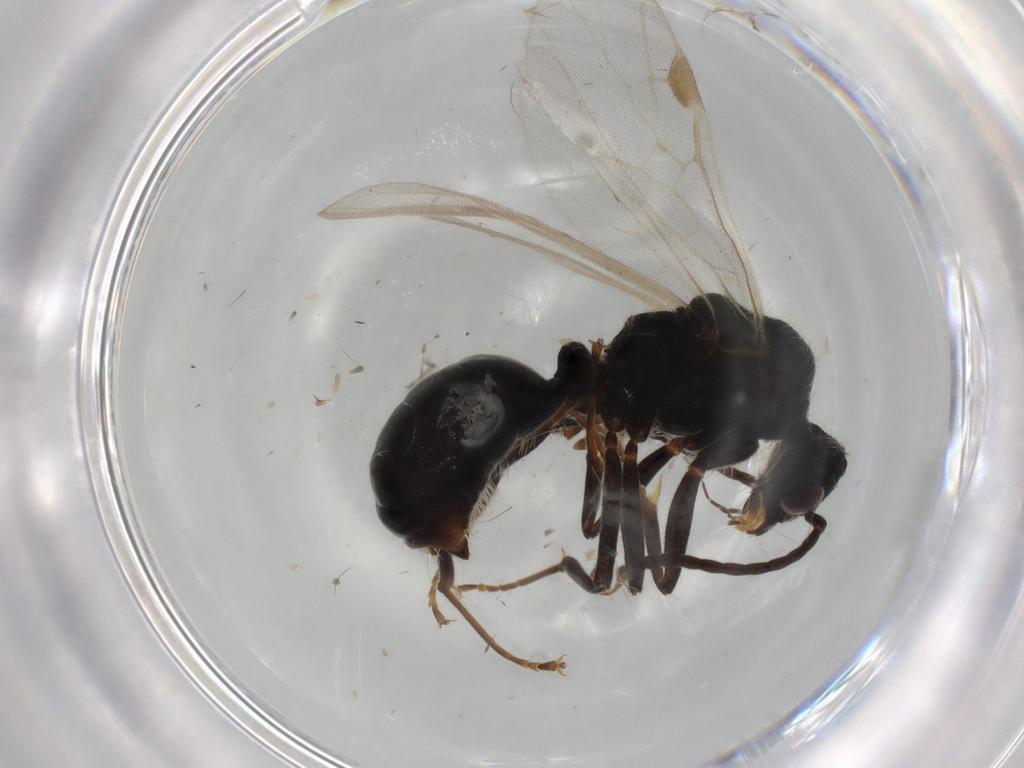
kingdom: Animalia
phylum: Arthropoda
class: Insecta
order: Hymenoptera
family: Formicidae
